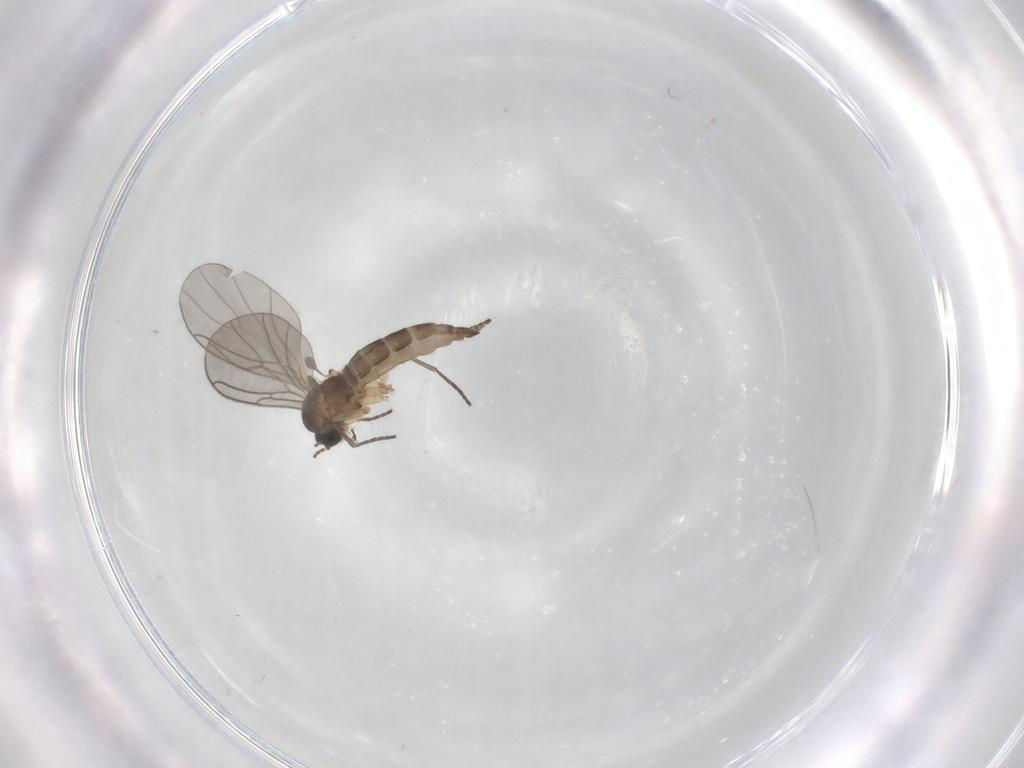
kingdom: Animalia
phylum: Arthropoda
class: Insecta
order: Diptera
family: Sciaridae
